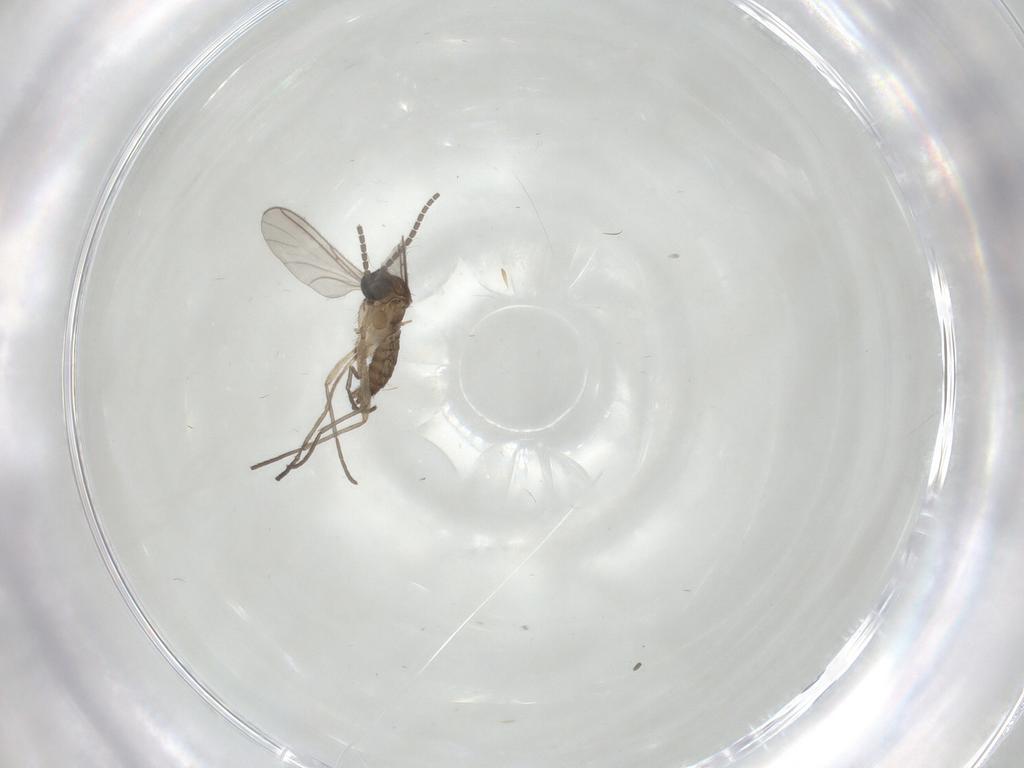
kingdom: Animalia
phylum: Arthropoda
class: Insecta
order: Diptera
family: Sciaridae
